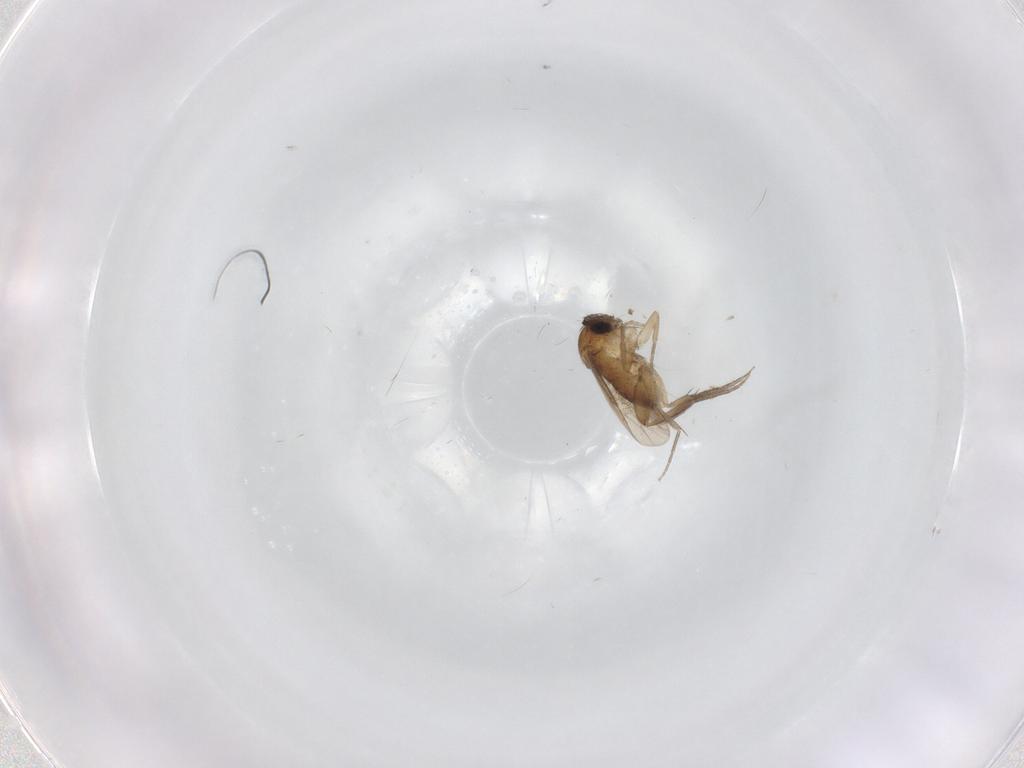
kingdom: Animalia
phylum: Arthropoda
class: Insecta
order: Diptera
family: Phoridae
